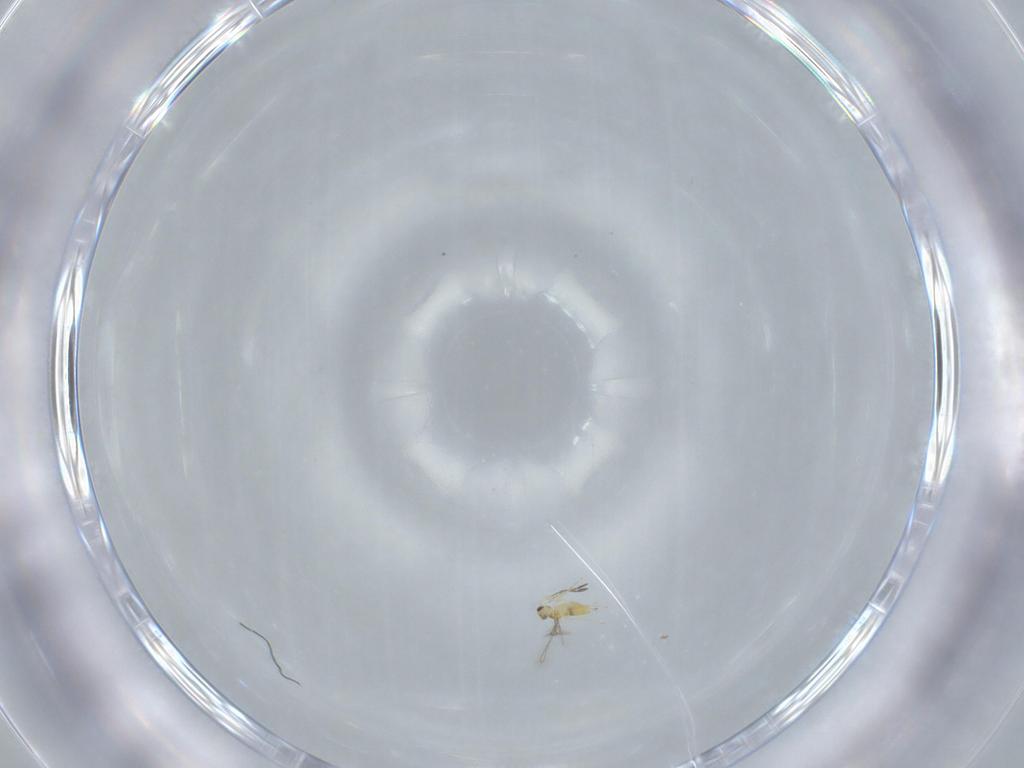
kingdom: Animalia
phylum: Arthropoda
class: Insecta
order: Hymenoptera
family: Mymaridae
